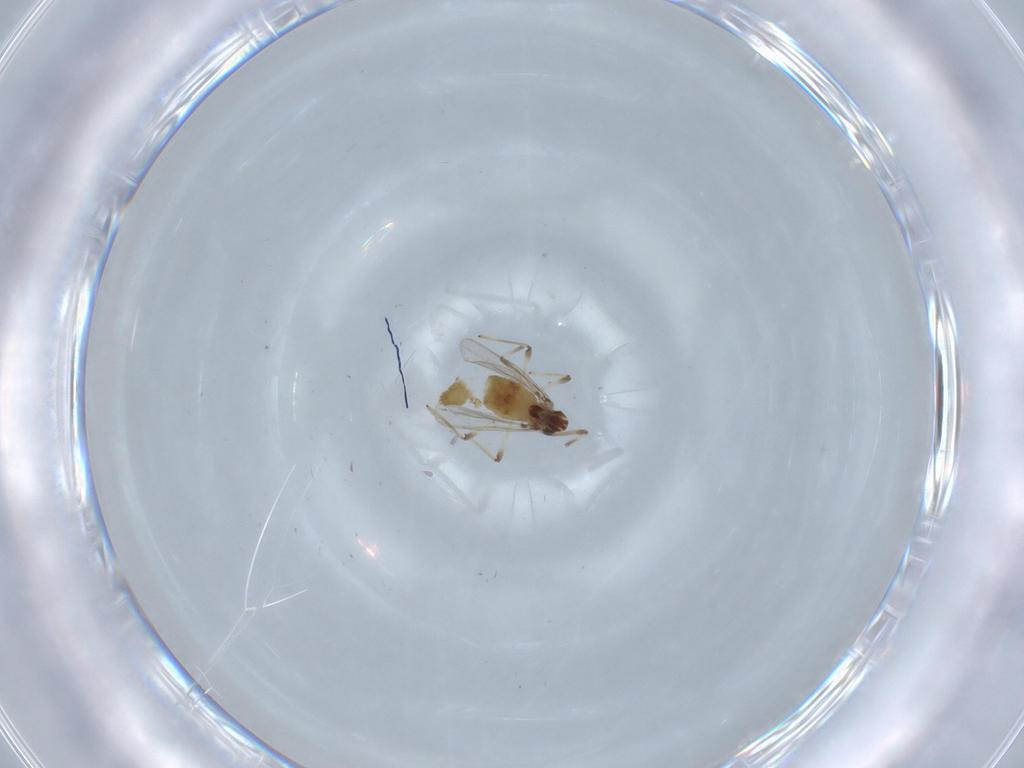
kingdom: Animalia
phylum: Arthropoda
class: Insecta
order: Diptera
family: Chironomidae
